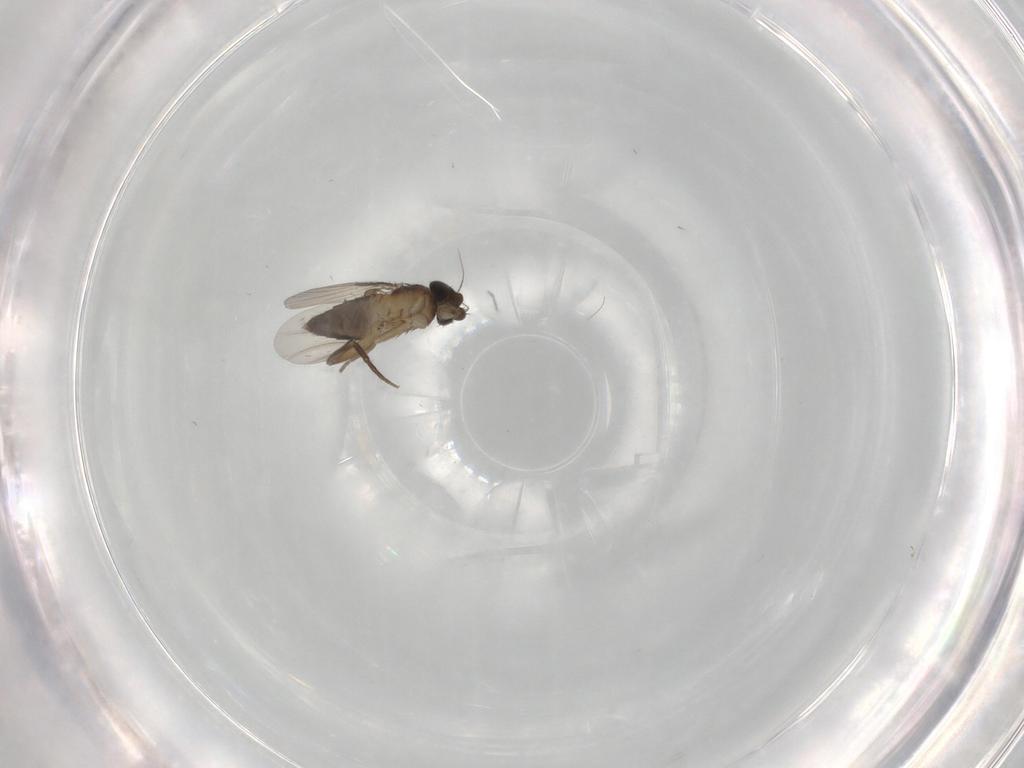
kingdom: Animalia
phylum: Arthropoda
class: Insecta
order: Diptera
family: Phoridae
